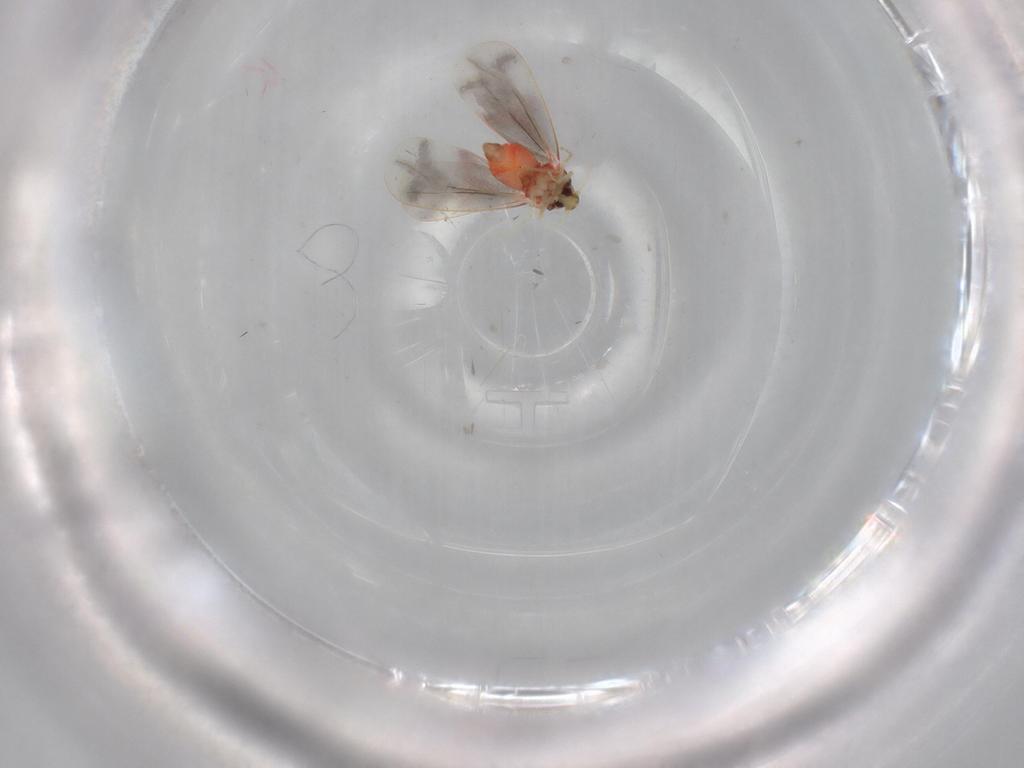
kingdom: Animalia
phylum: Arthropoda
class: Insecta
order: Hemiptera
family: Aleyrodidae
